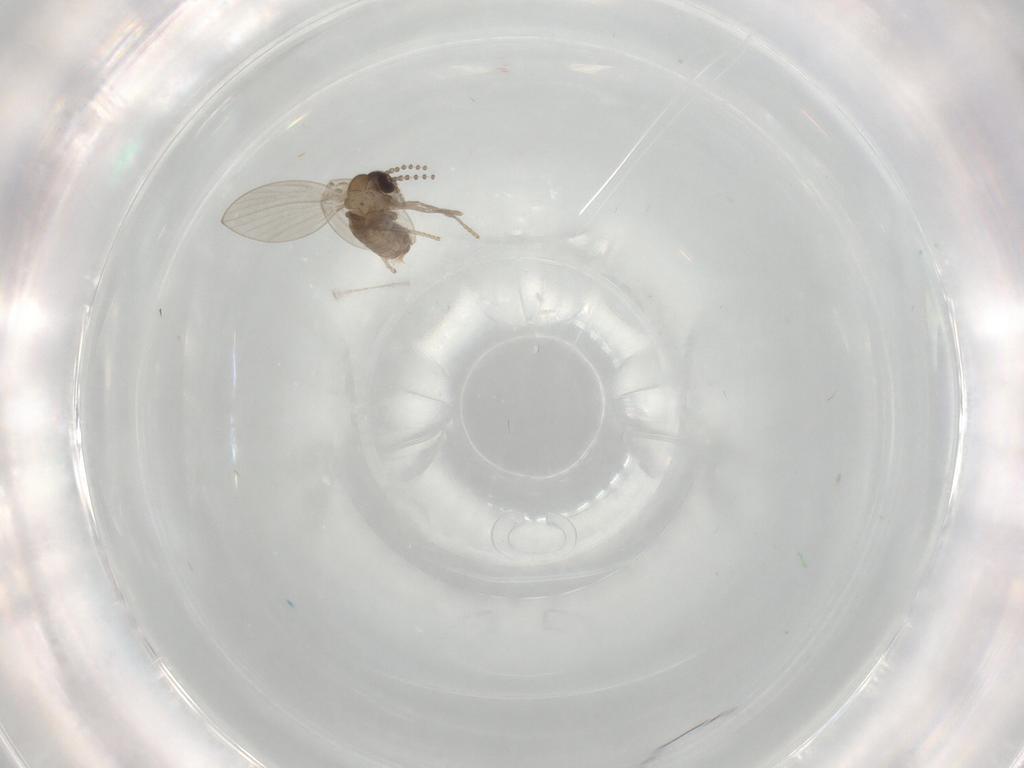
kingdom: Animalia
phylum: Arthropoda
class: Insecta
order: Diptera
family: Cecidomyiidae
